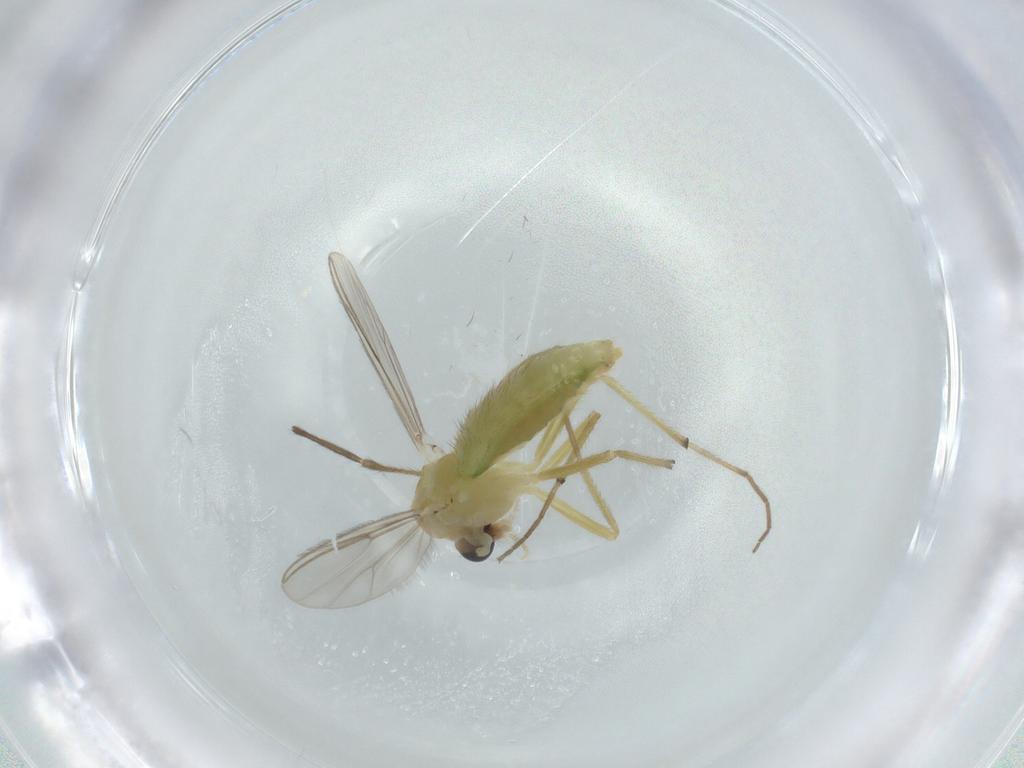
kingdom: Animalia
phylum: Arthropoda
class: Insecta
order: Diptera
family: Chironomidae
